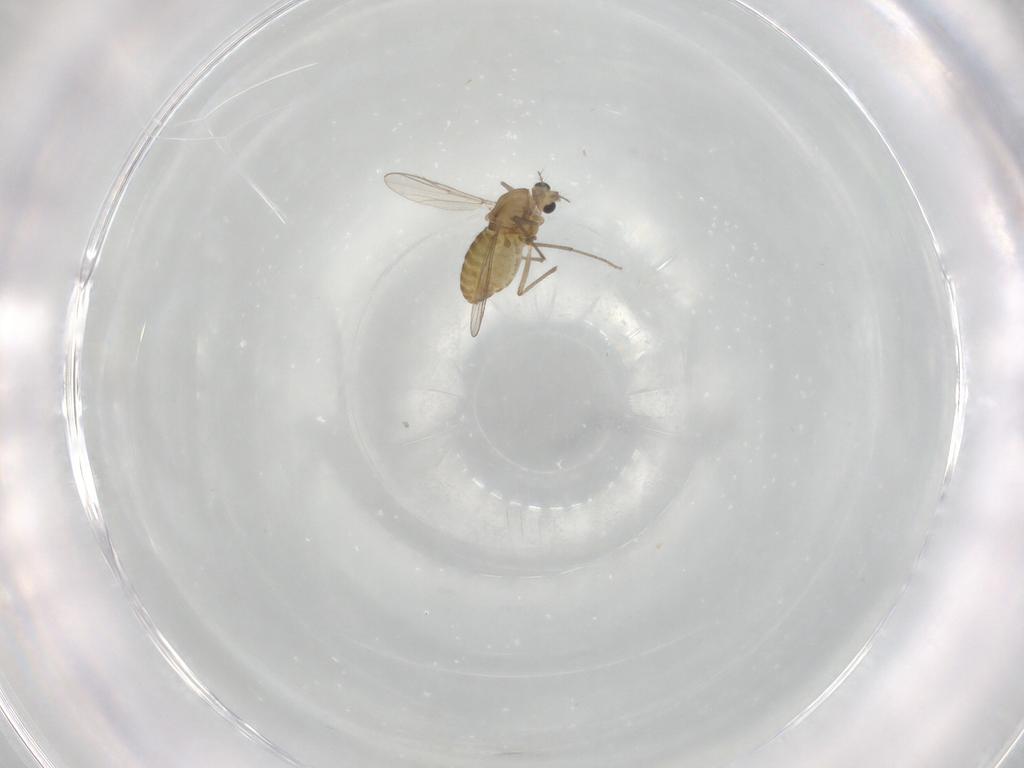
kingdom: Animalia
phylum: Arthropoda
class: Insecta
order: Diptera
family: Chironomidae
